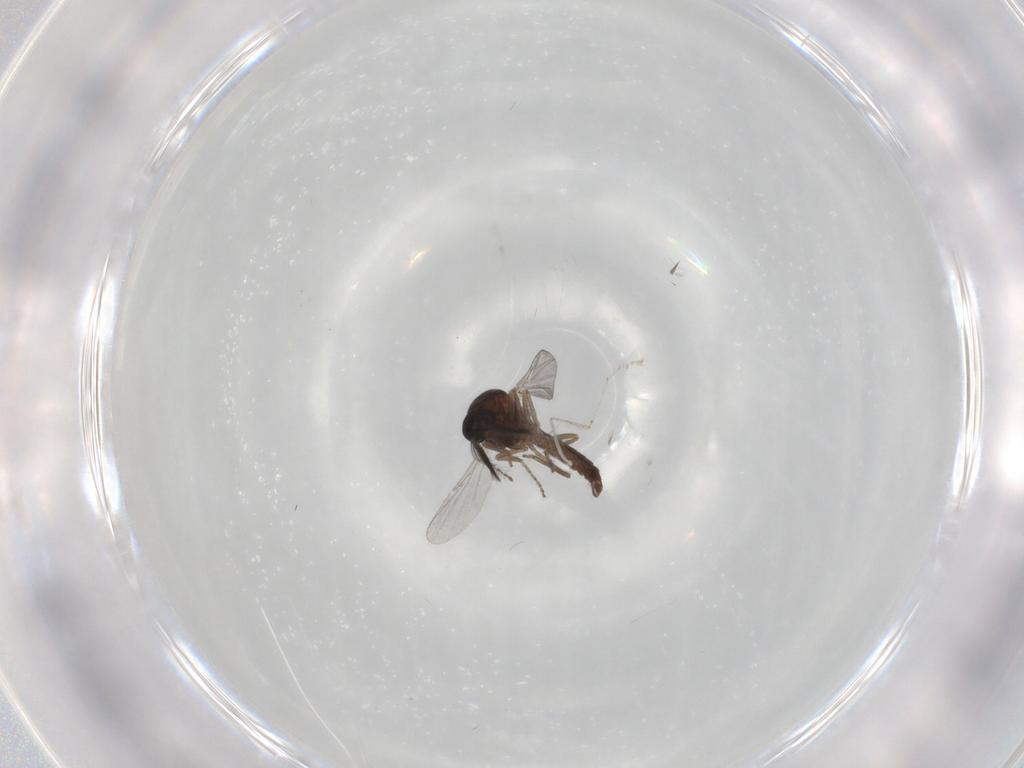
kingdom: Animalia
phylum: Arthropoda
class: Insecta
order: Diptera
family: Ceratopogonidae
